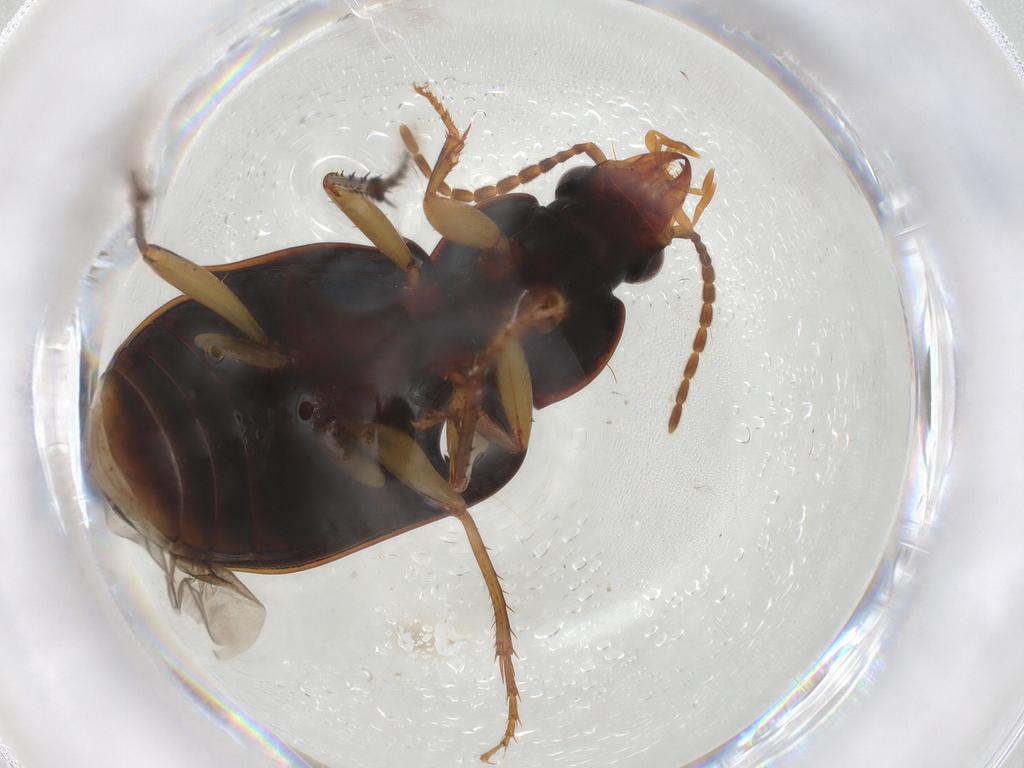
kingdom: Animalia
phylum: Arthropoda
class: Insecta
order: Coleoptera
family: Carabidae
